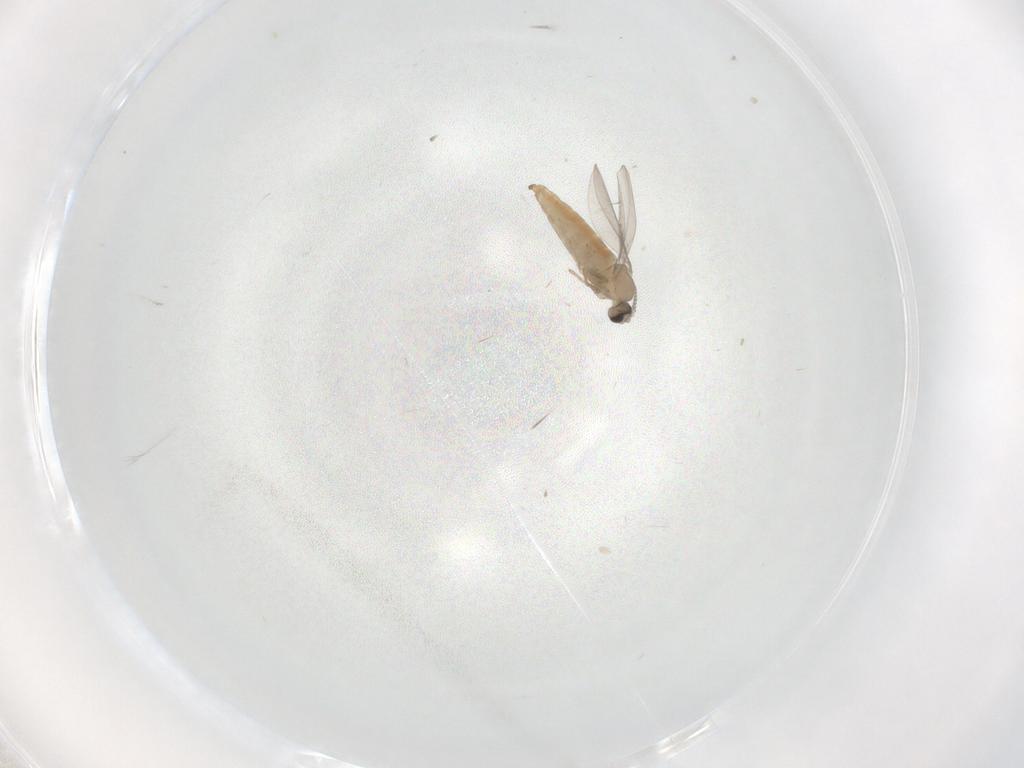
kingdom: Animalia
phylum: Arthropoda
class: Insecta
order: Diptera
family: Cecidomyiidae
